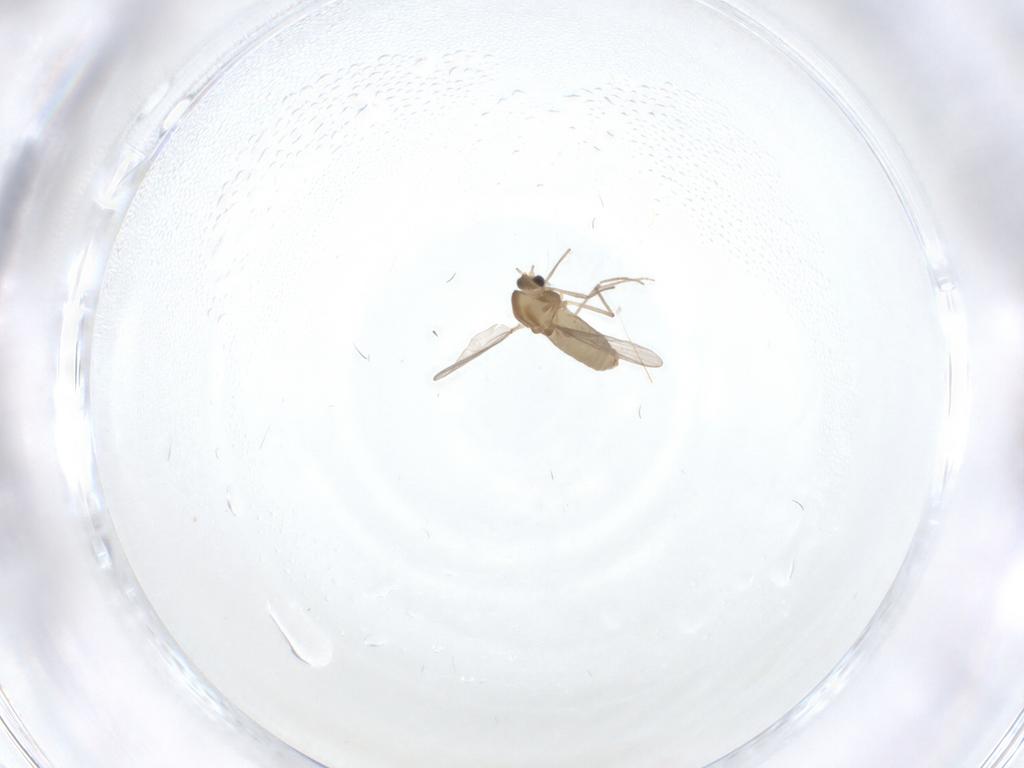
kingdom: Animalia
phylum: Arthropoda
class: Insecta
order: Diptera
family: Chironomidae
